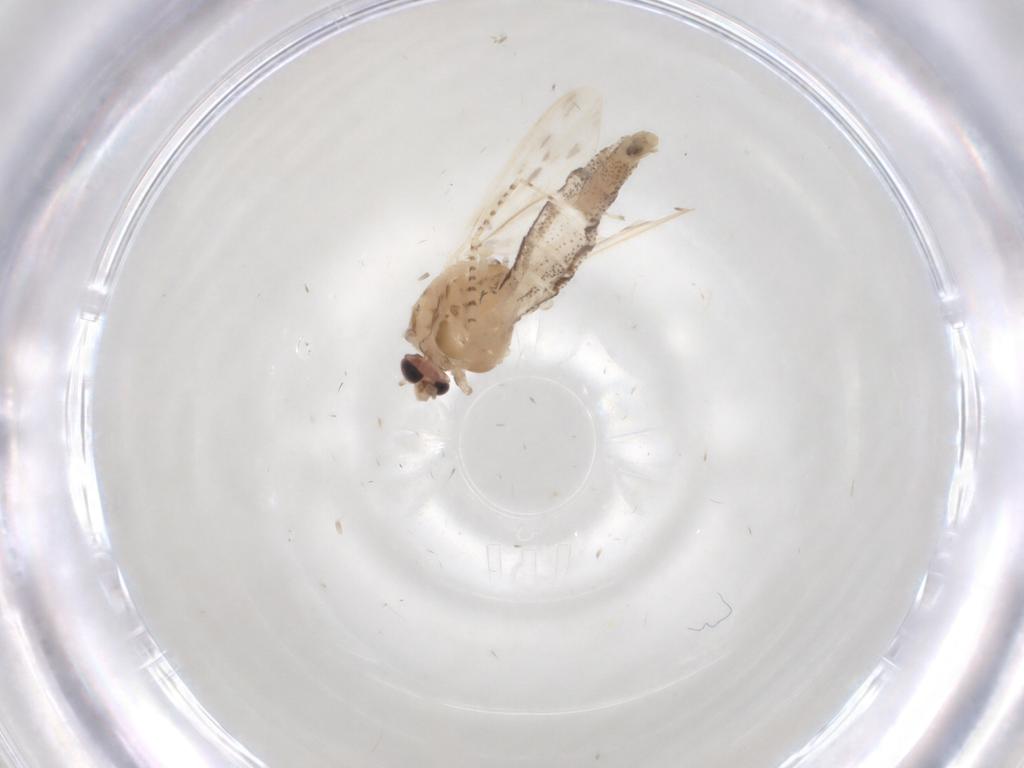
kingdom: Animalia
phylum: Arthropoda
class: Insecta
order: Diptera
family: Chaoboridae
